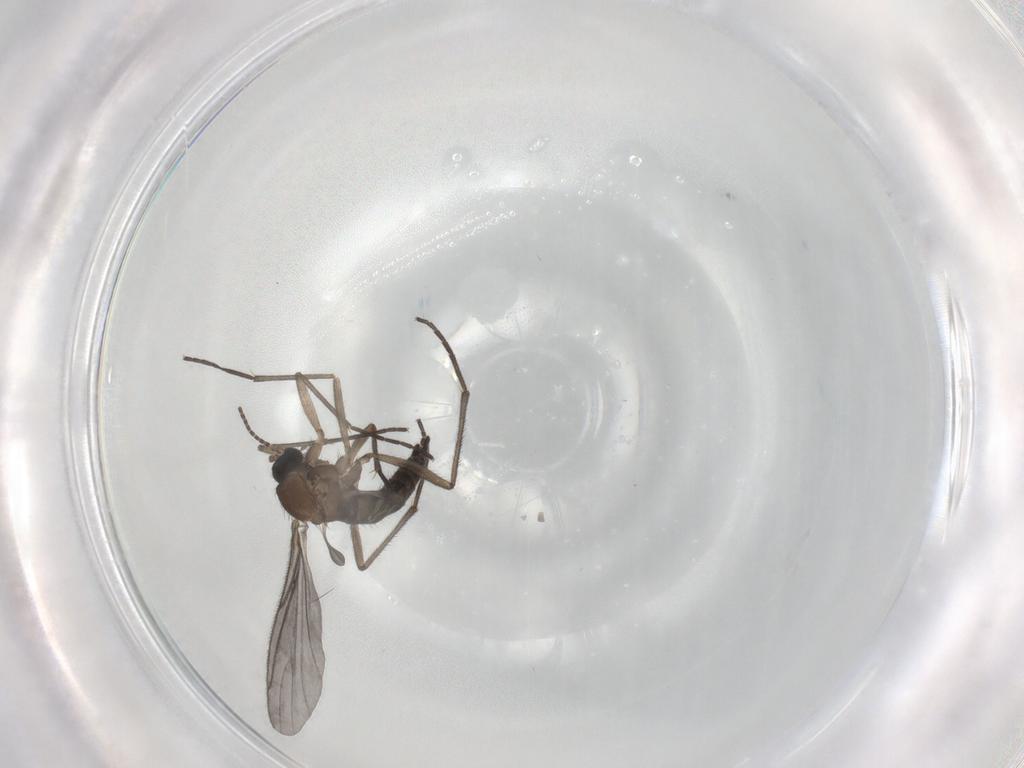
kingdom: Animalia
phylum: Arthropoda
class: Insecta
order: Diptera
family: Sciaridae
